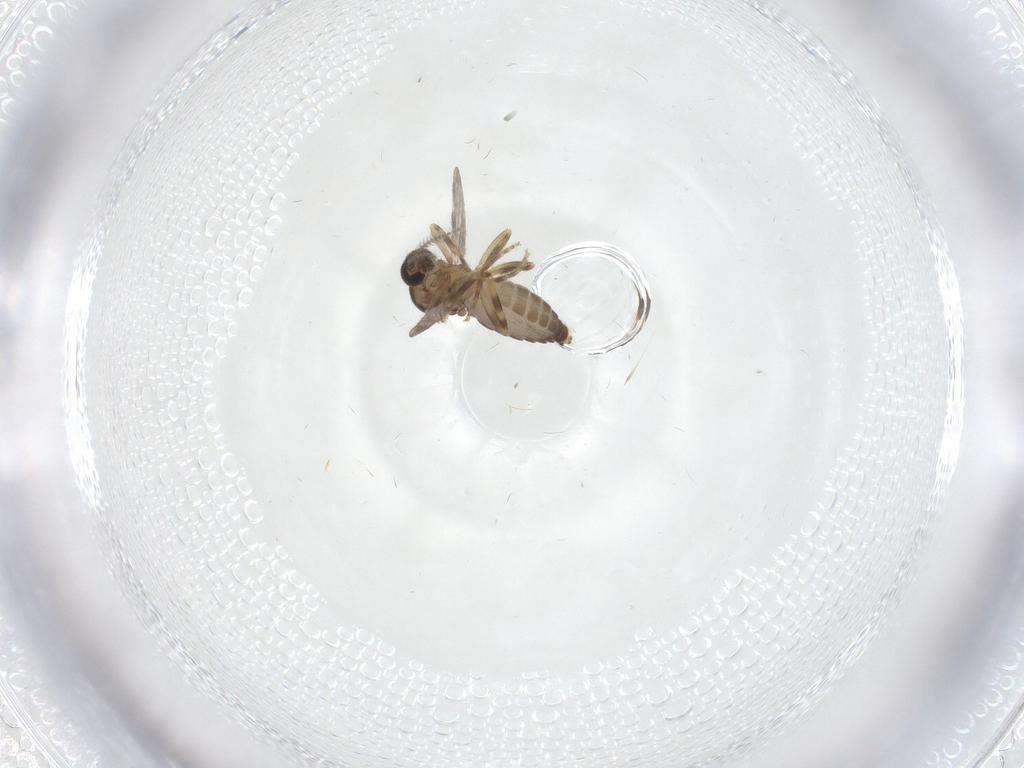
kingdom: Animalia
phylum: Arthropoda
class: Insecta
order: Diptera
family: Ceratopogonidae
